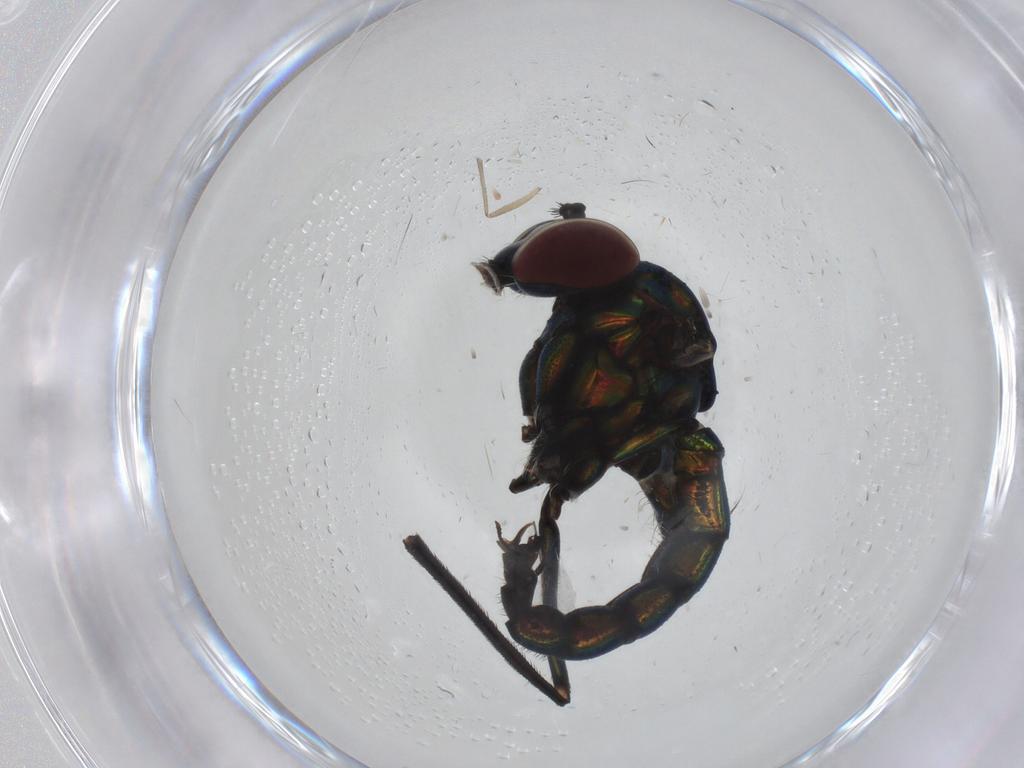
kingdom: Animalia
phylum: Arthropoda
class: Insecta
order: Diptera
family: Dolichopodidae
